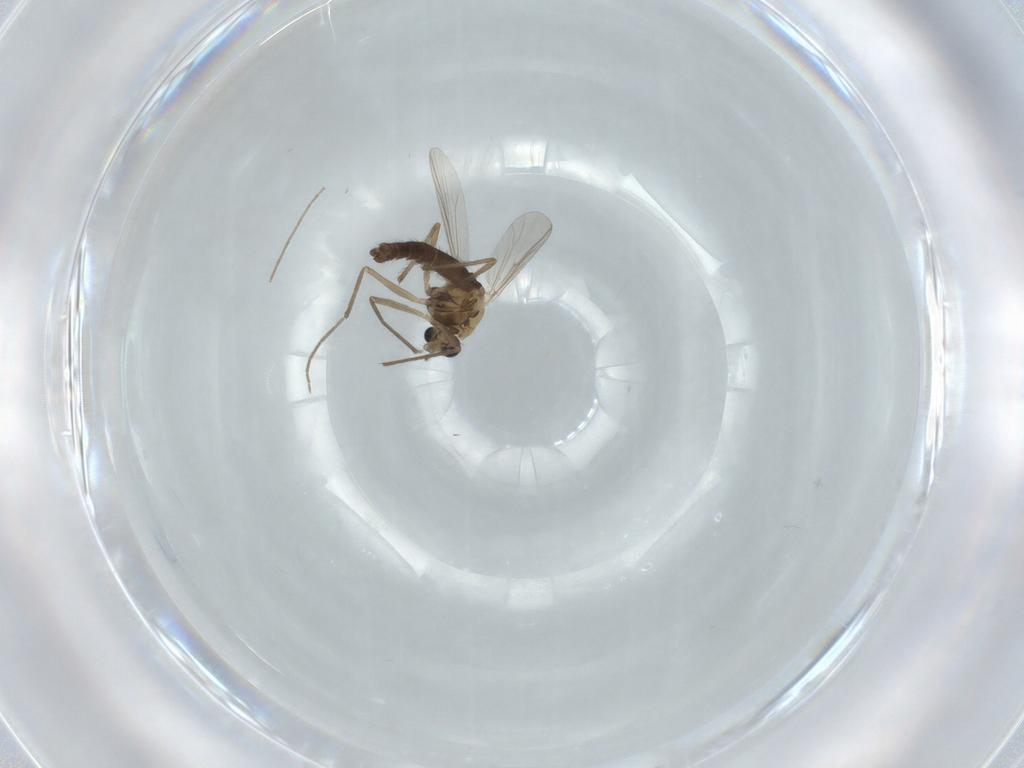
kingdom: Animalia
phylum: Arthropoda
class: Insecta
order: Diptera
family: Chironomidae
